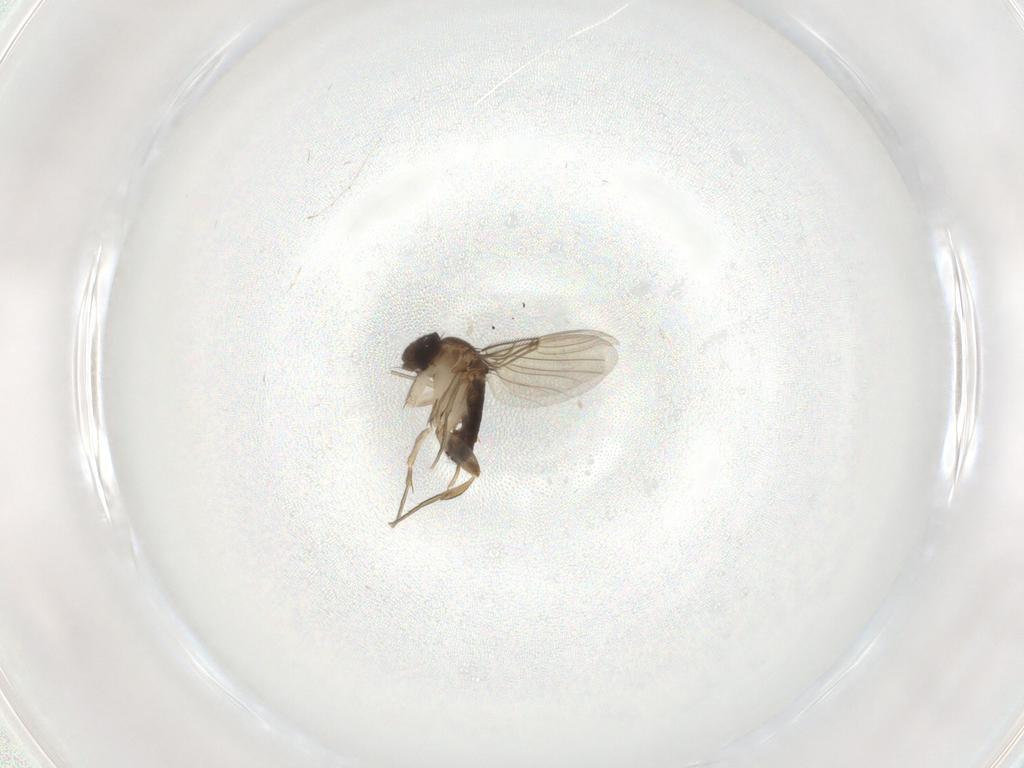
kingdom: Animalia
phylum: Arthropoda
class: Insecta
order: Diptera
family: Cecidomyiidae
